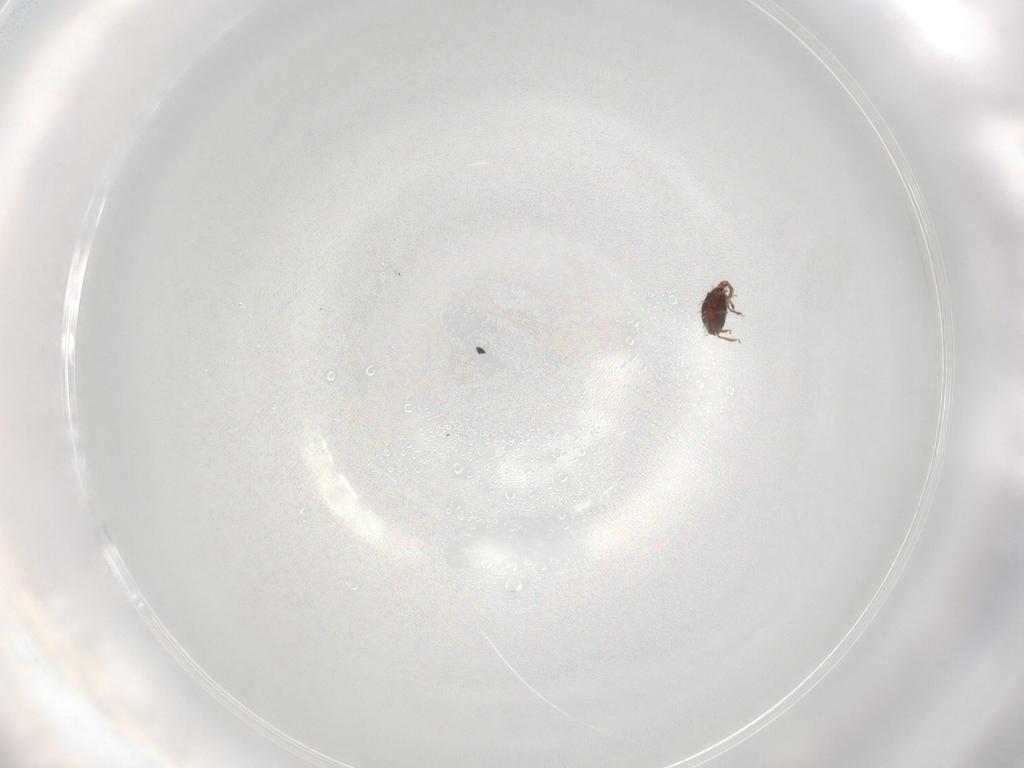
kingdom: Animalia
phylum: Arthropoda
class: Arachnida
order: Sarcoptiformes
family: Scheloribatidae
